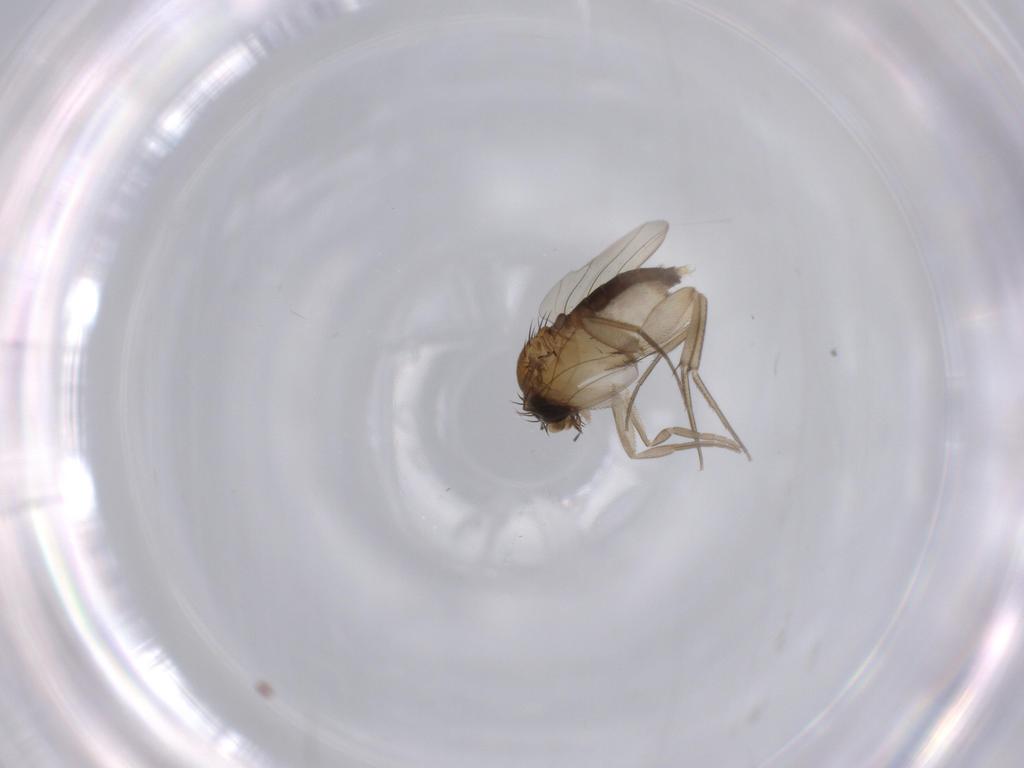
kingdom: Animalia
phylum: Arthropoda
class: Insecta
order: Diptera
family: Phoridae
